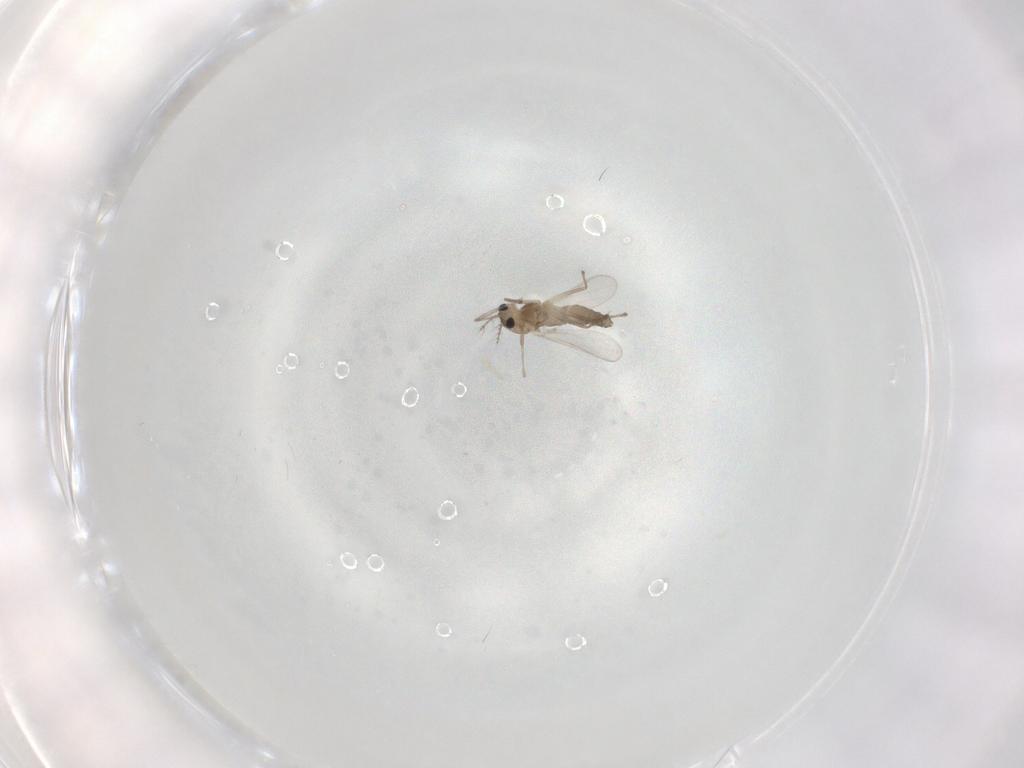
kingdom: Animalia
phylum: Arthropoda
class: Insecta
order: Diptera
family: Chironomidae
